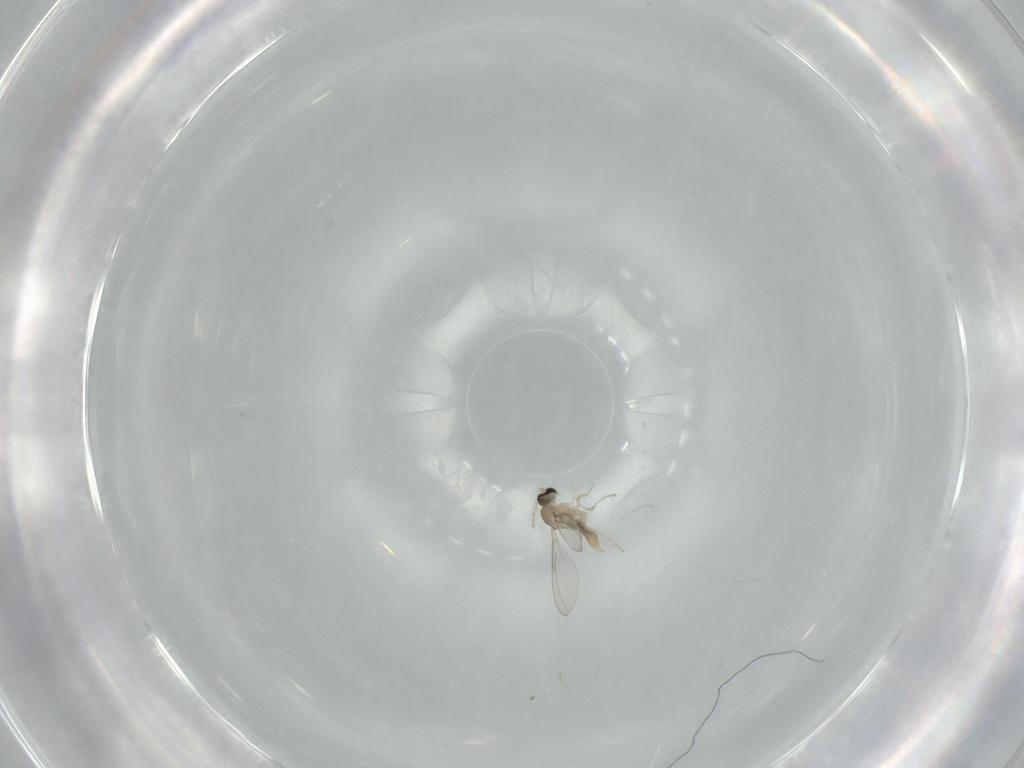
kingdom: Animalia
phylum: Arthropoda
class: Insecta
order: Diptera
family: Cecidomyiidae
